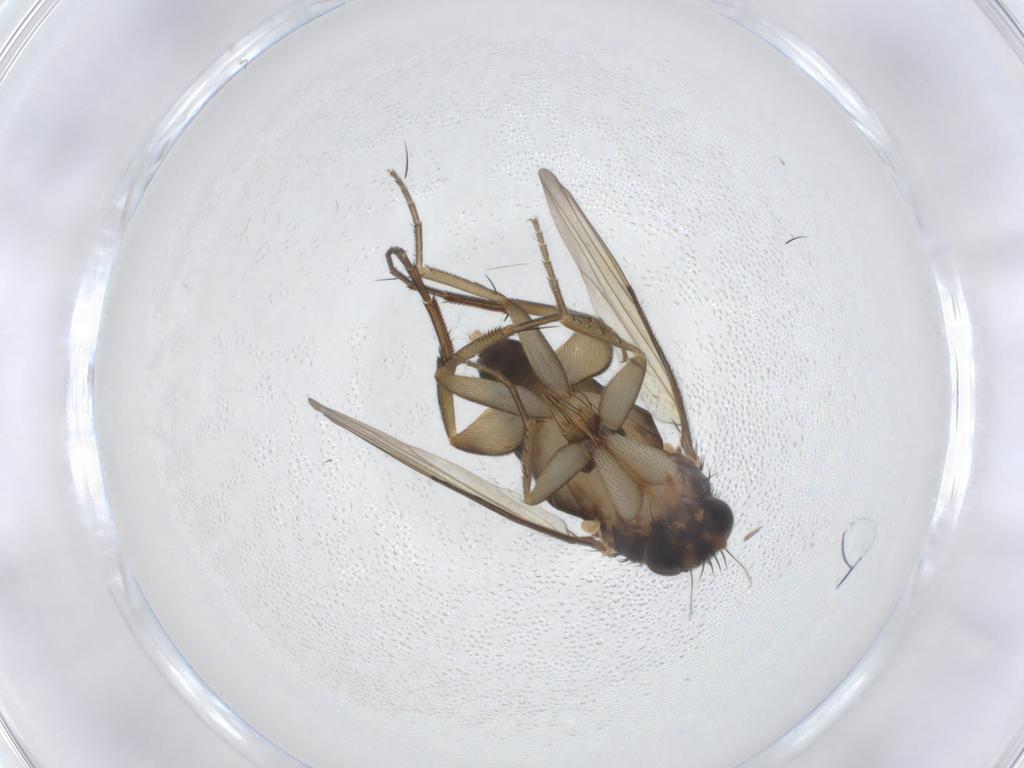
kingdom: Animalia
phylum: Arthropoda
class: Insecta
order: Diptera
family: Phoridae
